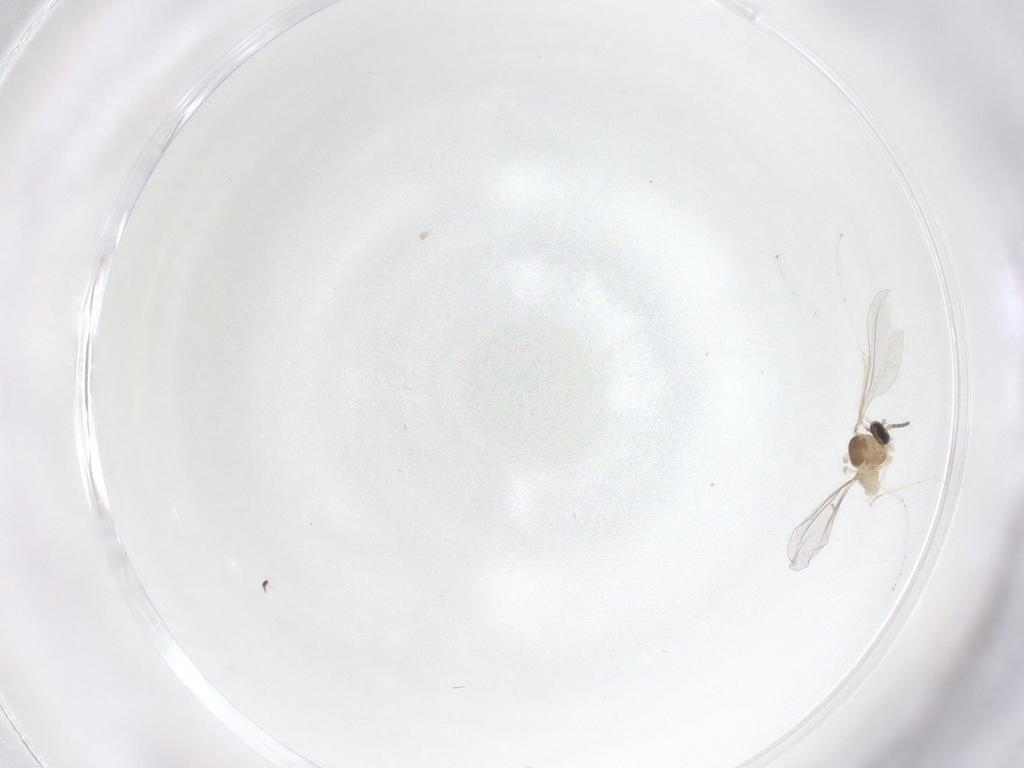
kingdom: Animalia
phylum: Arthropoda
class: Insecta
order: Diptera
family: Cecidomyiidae
